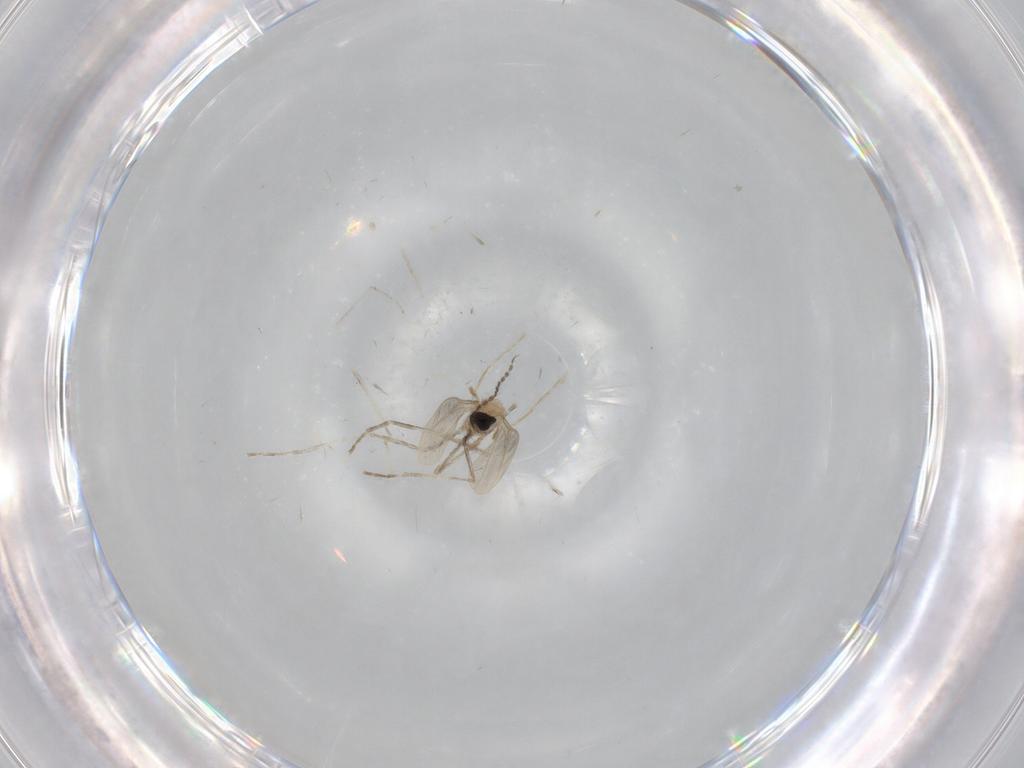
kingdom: Animalia
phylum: Arthropoda
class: Insecta
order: Diptera
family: Cecidomyiidae
